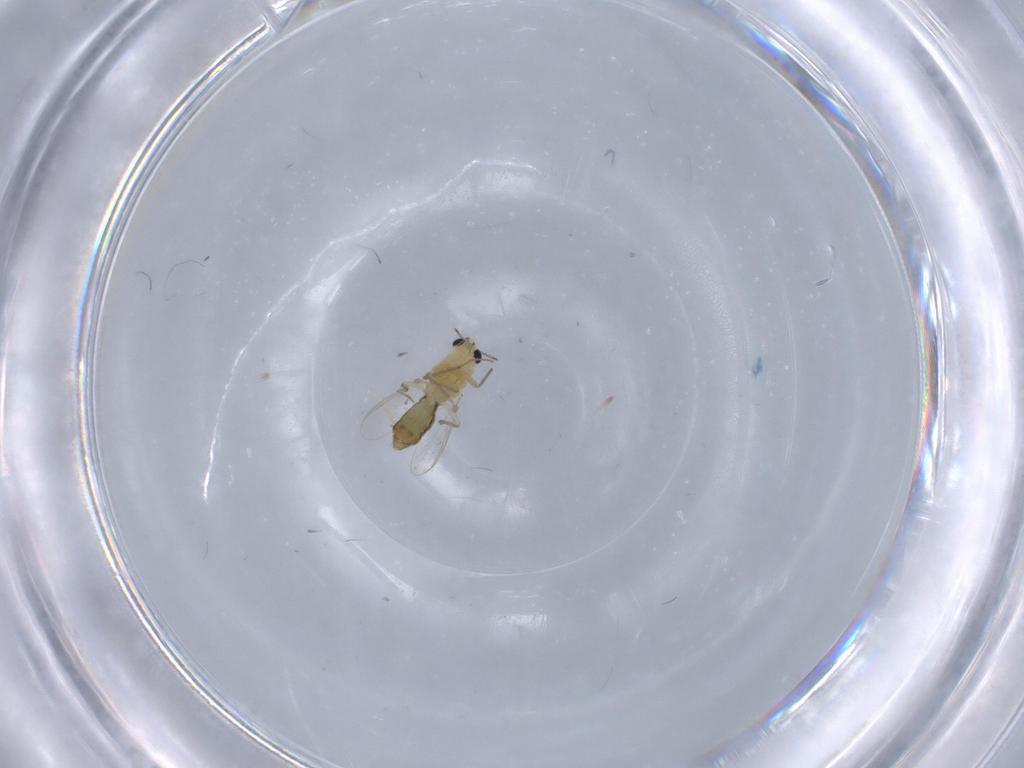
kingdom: Animalia
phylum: Arthropoda
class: Insecta
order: Diptera
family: Chironomidae
